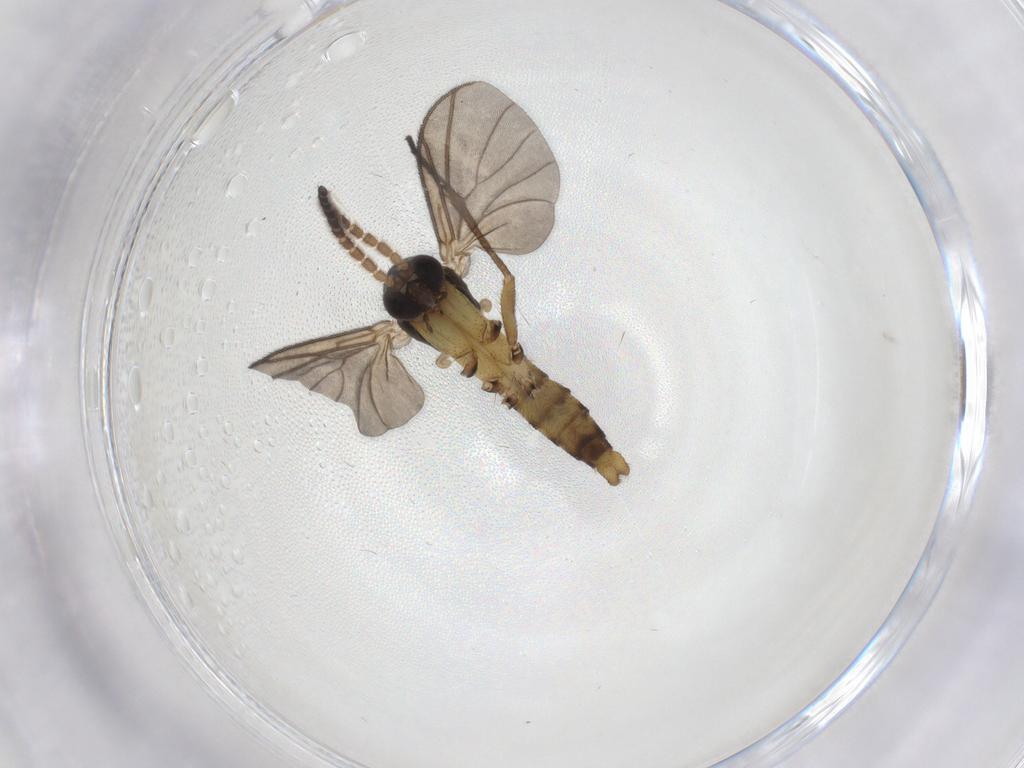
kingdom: Animalia
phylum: Arthropoda
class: Insecta
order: Diptera
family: Mycetophilidae
